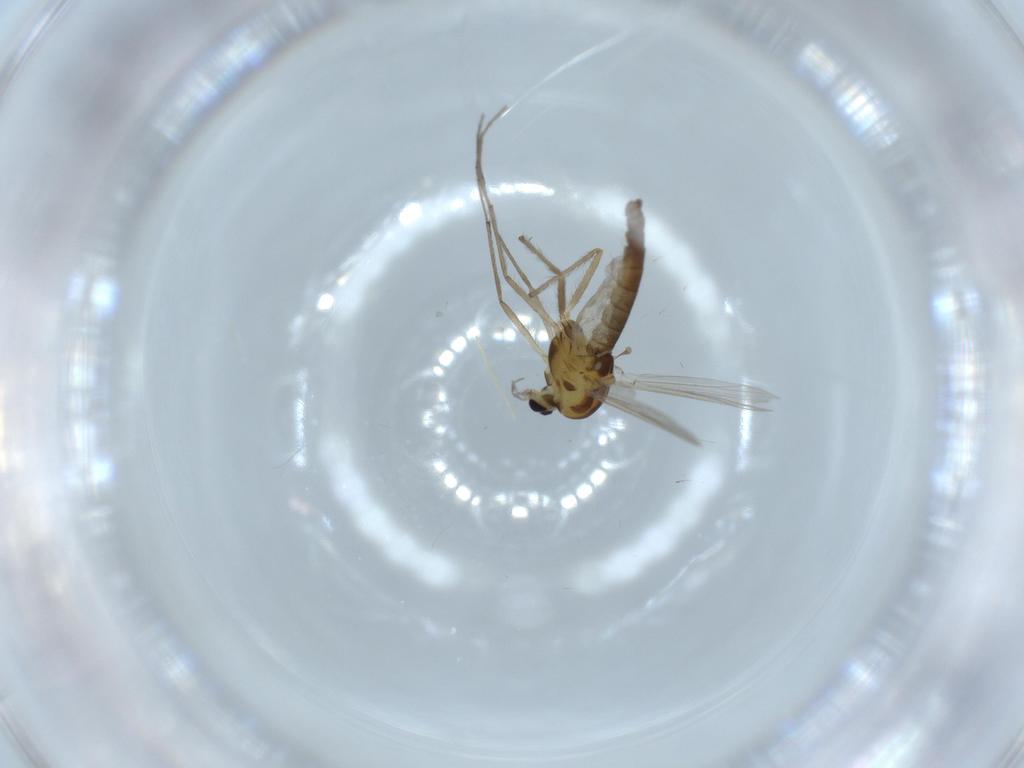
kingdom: Animalia
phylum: Arthropoda
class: Insecta
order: Diptera
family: Chironomidae
